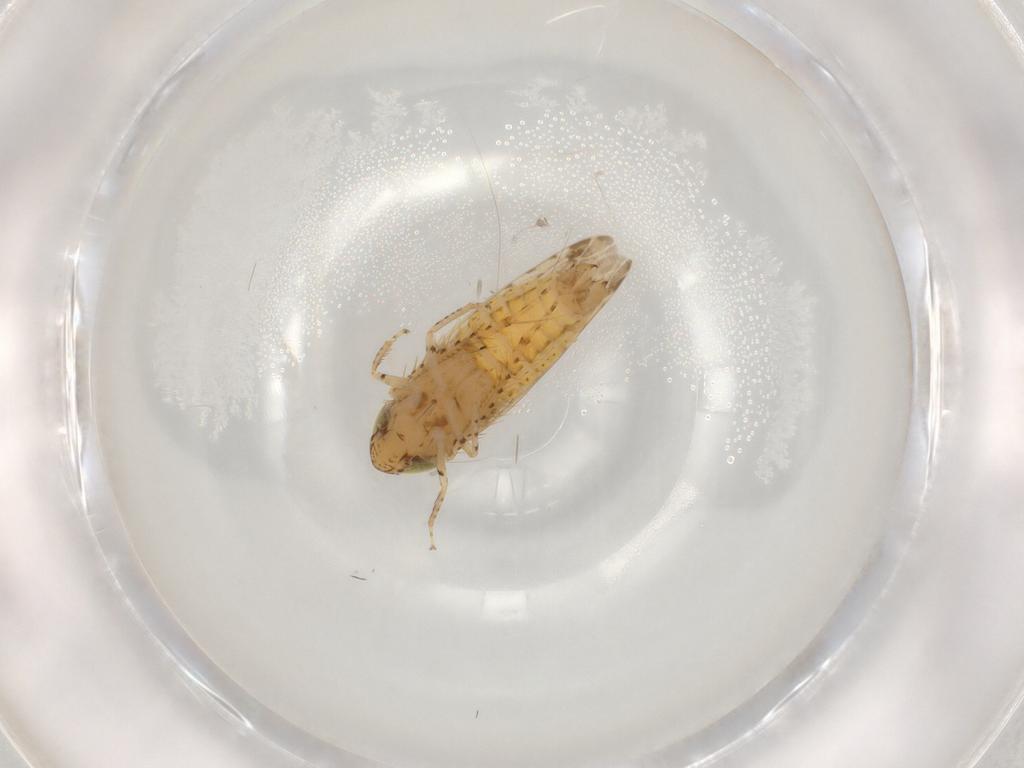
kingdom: Animalia
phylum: Arthropoda
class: Insecta
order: Hemiptera
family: Cicadellidae
